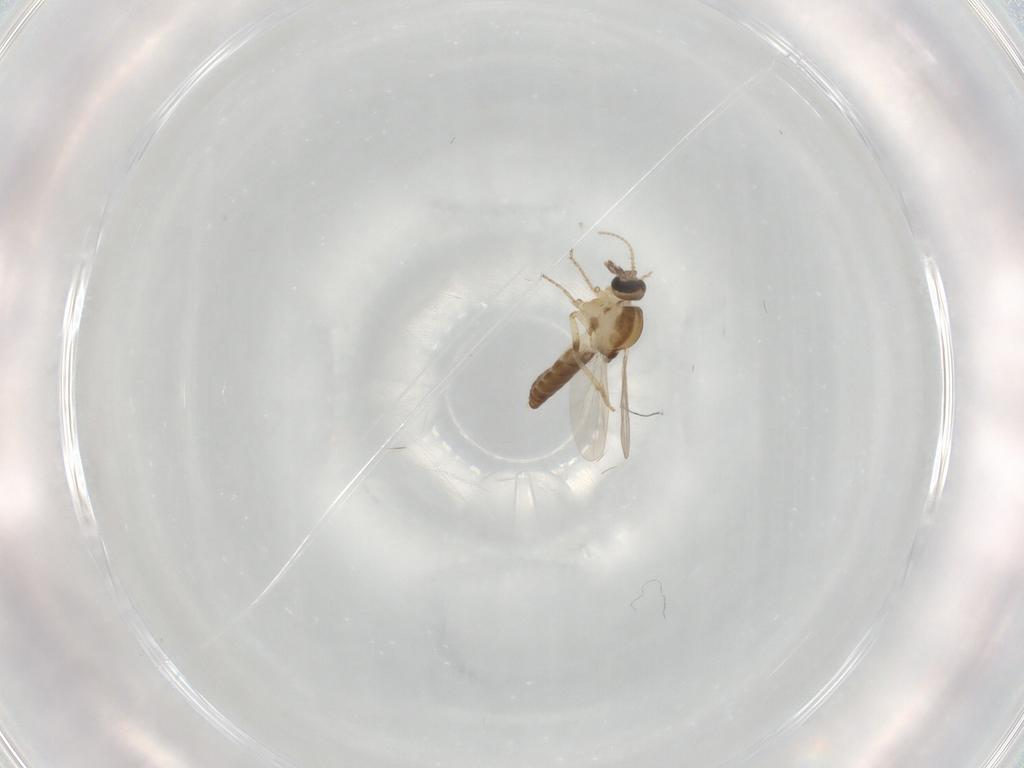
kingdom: Animalia
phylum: Arthropoda
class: Insecta
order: Diptera
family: Ceratopogonidae
